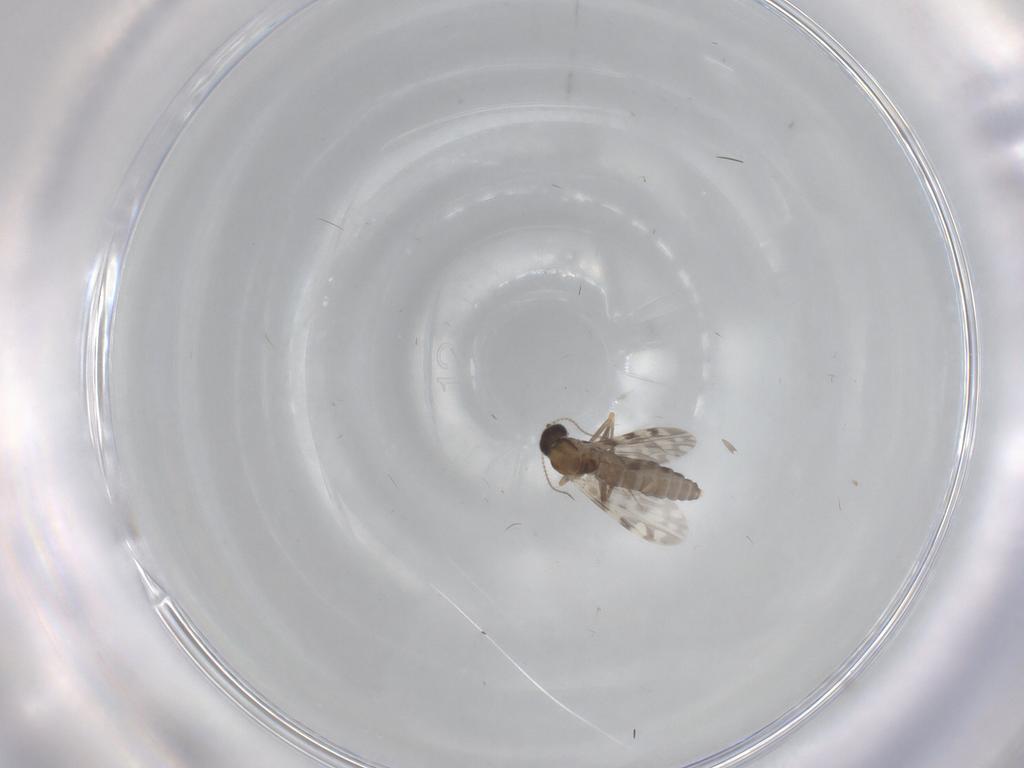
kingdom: Animalia
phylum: Arthropoda
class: Insecta
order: Diptera
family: Ceratopogonidae
